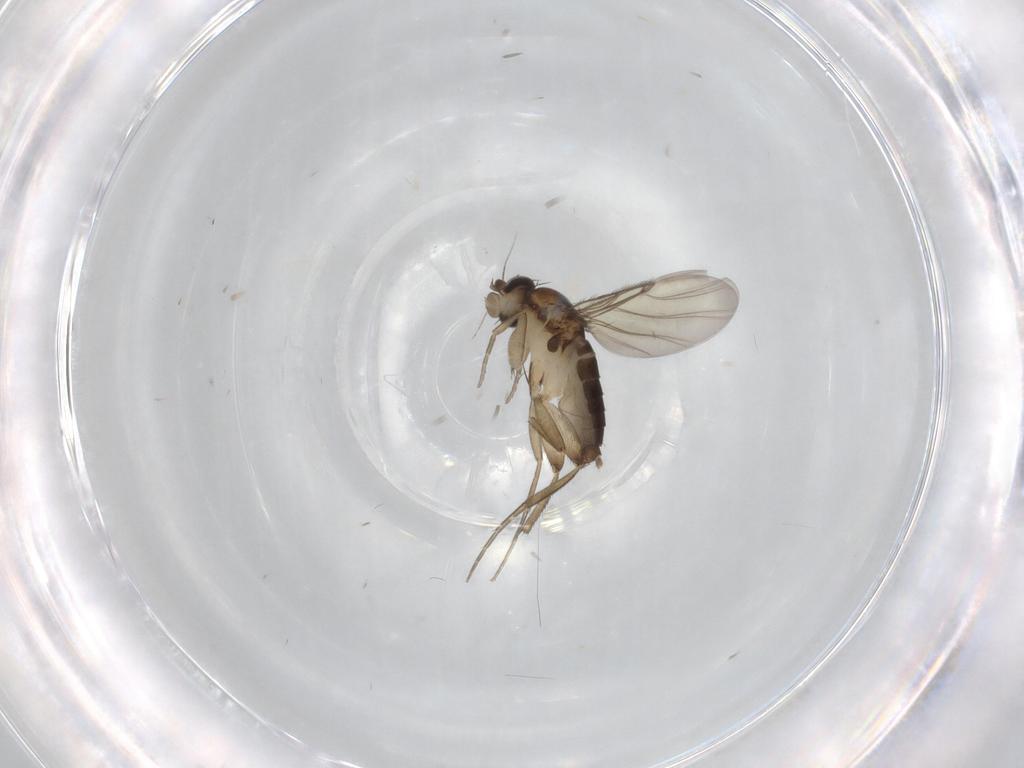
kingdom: Animalia
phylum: Arthropoda
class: Insecta
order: Diptera
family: Phoridae
